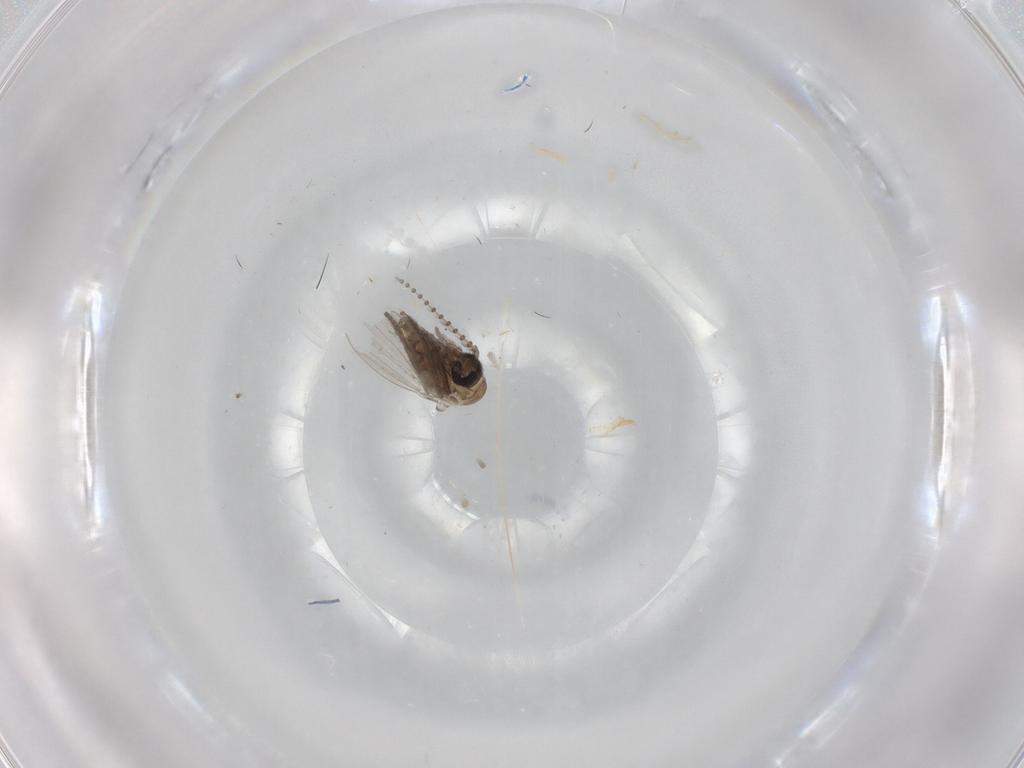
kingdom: Animalia
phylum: Arthropoda
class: Insecta
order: Diptera
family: Psychodidae
